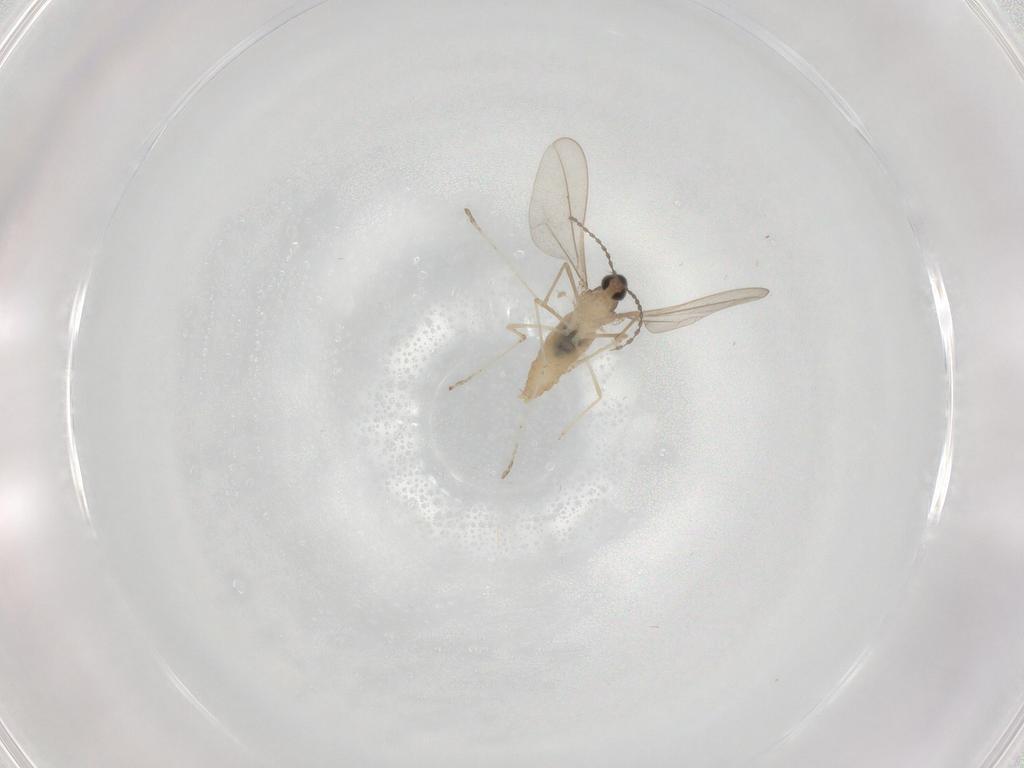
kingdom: Animalia
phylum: Arthropoda
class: Insecta
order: Diptera
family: Cecidomyiidae
